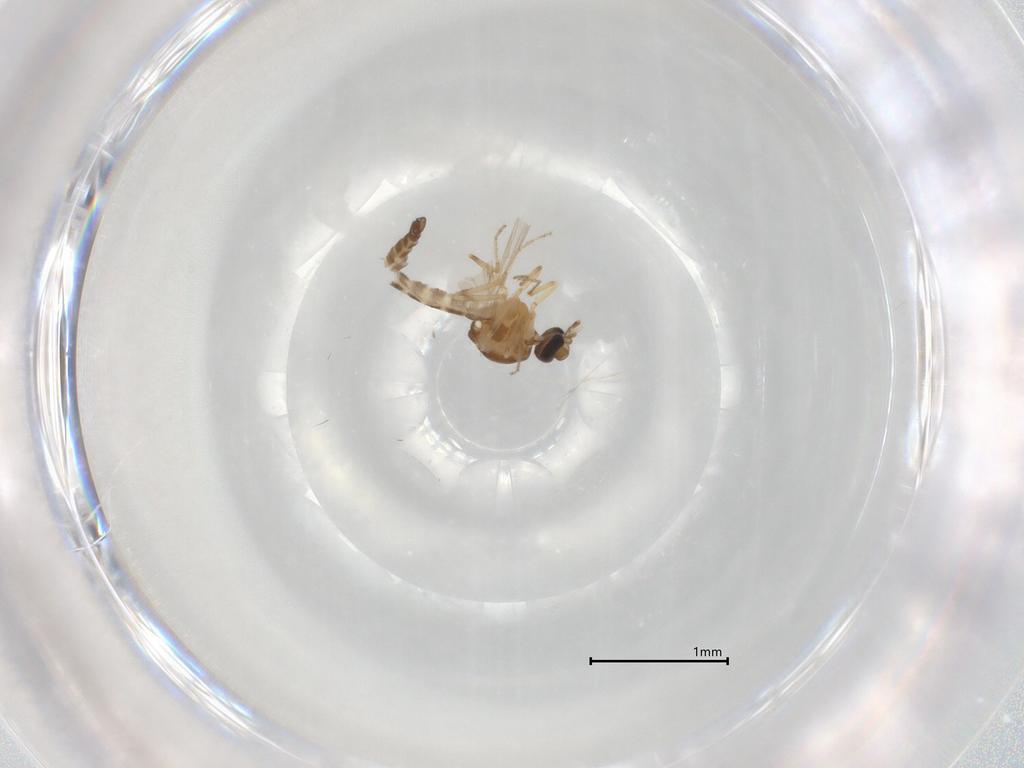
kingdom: Animalia
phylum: Arthropoda
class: Insecta
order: Diptera
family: Ceratopogonidae
